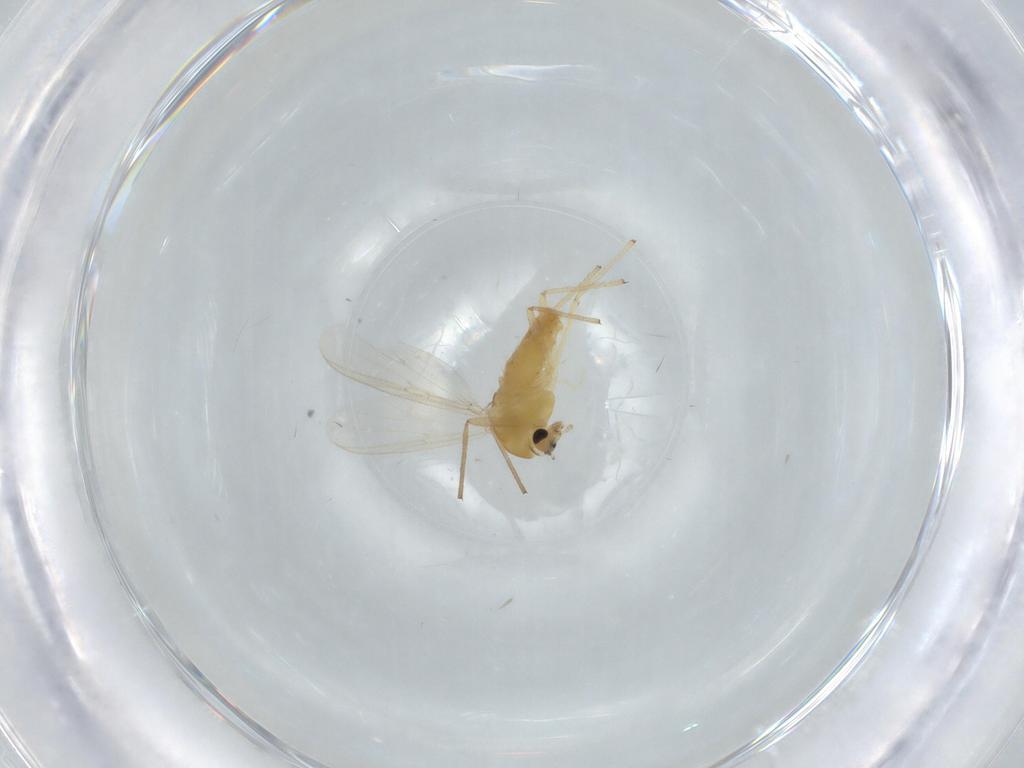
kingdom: Animalia
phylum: Arthropoda
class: Insecta
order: Diptera
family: Chironomidae
